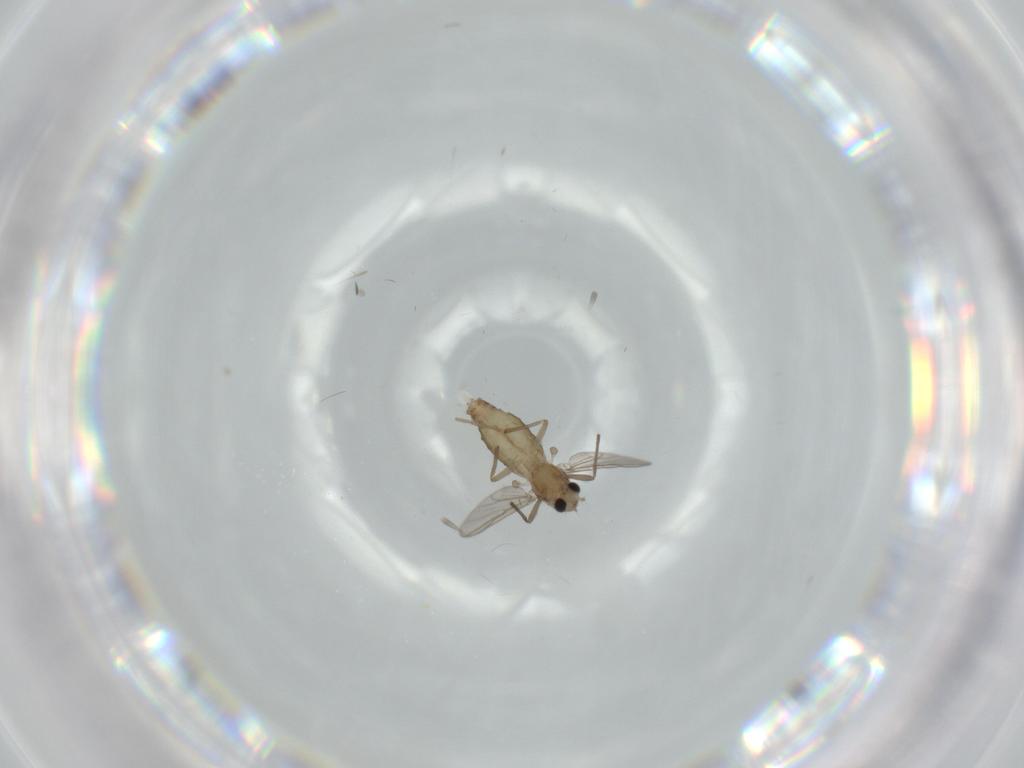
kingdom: Animalia
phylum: Arthropoda
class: Insecta
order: Diptera
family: Chironomidae
